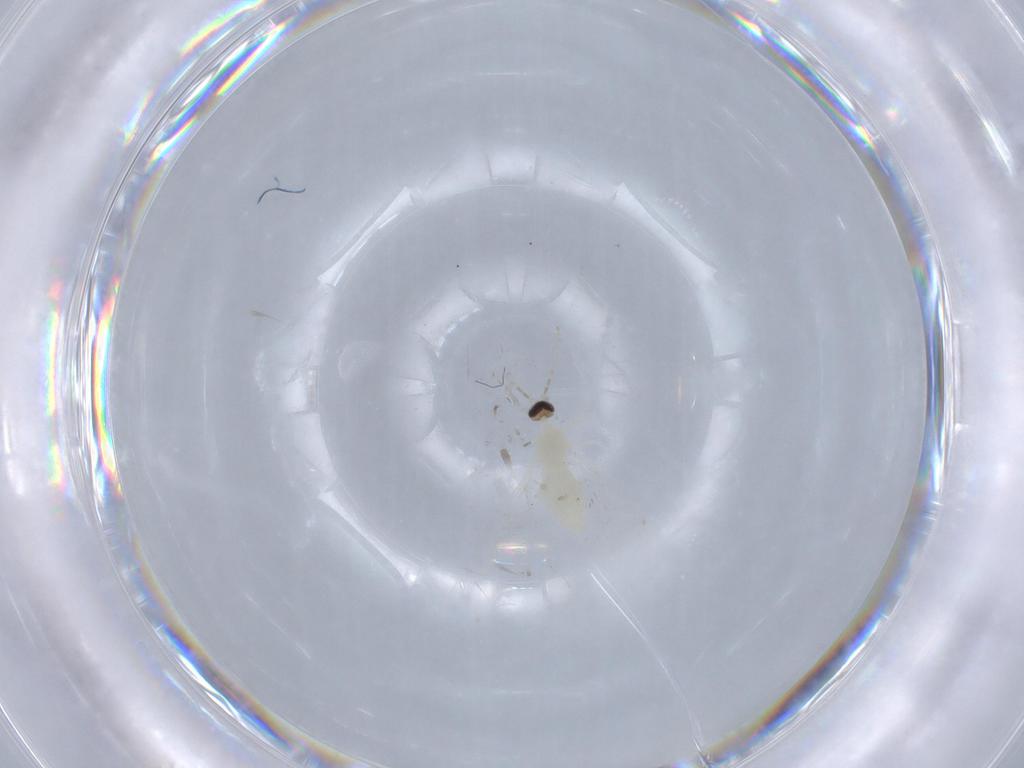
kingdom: Animalia
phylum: Arthropoda
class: Insecta
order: Diptera
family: Cecidomyiidae
